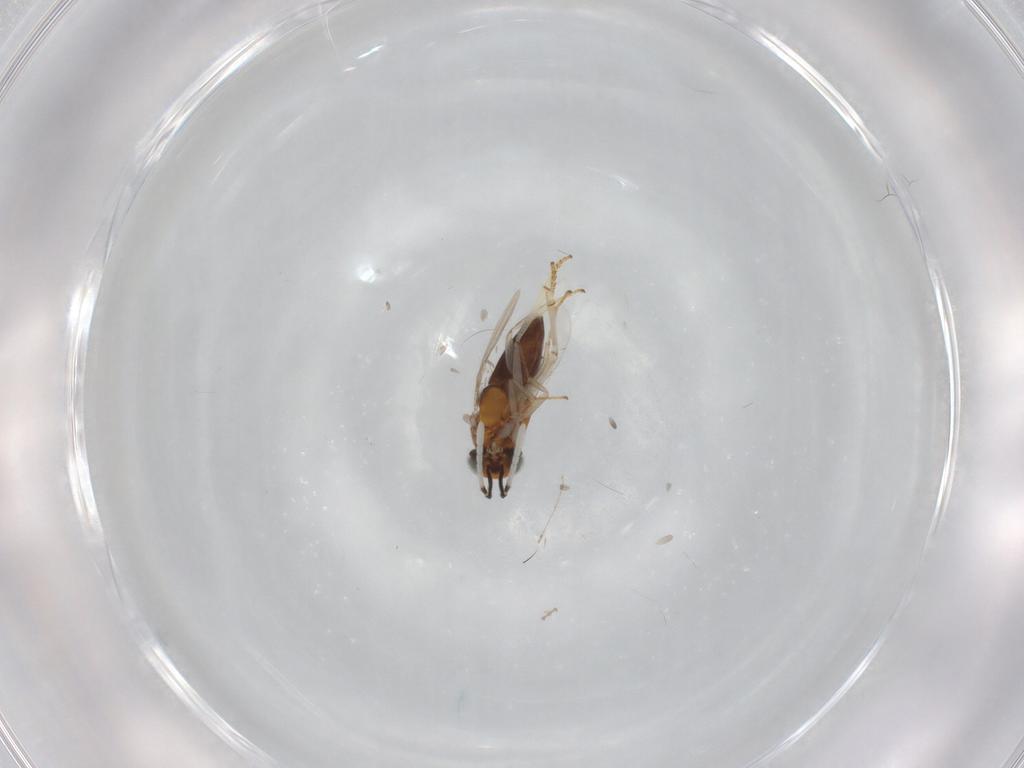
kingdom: Animalia
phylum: Arthropoda
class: Insecta
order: Hymenoptera
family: Encyrtidae
